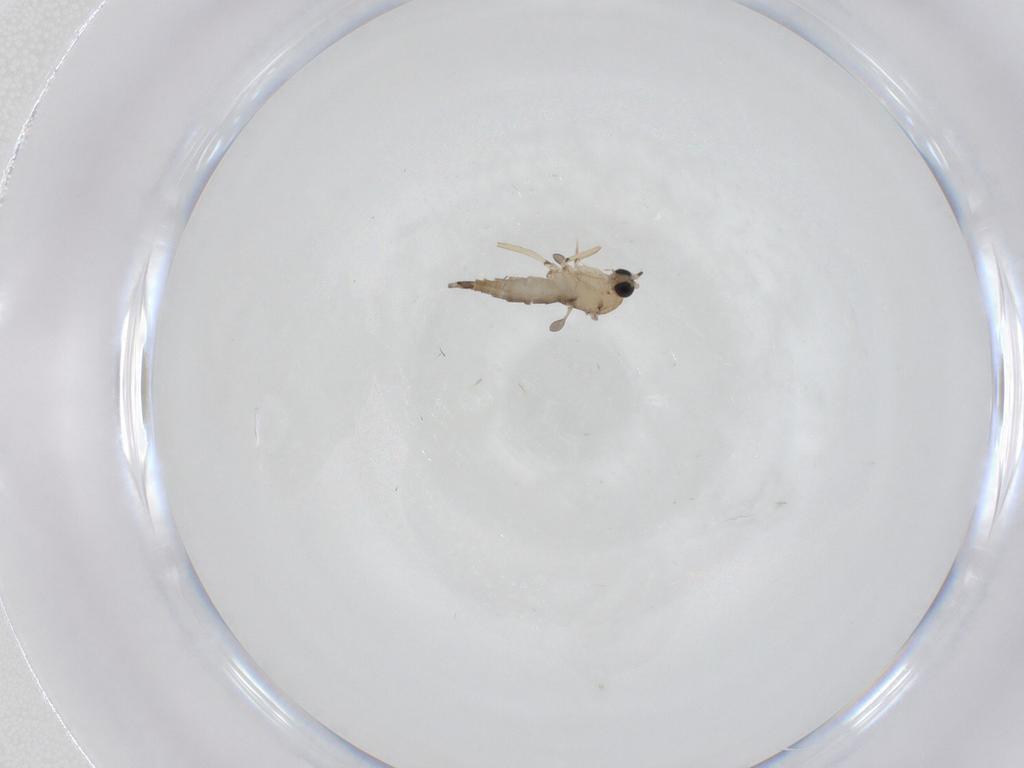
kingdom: Animalia
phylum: Arthropoda
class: Insecta
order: Diptera
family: Sciaridae
